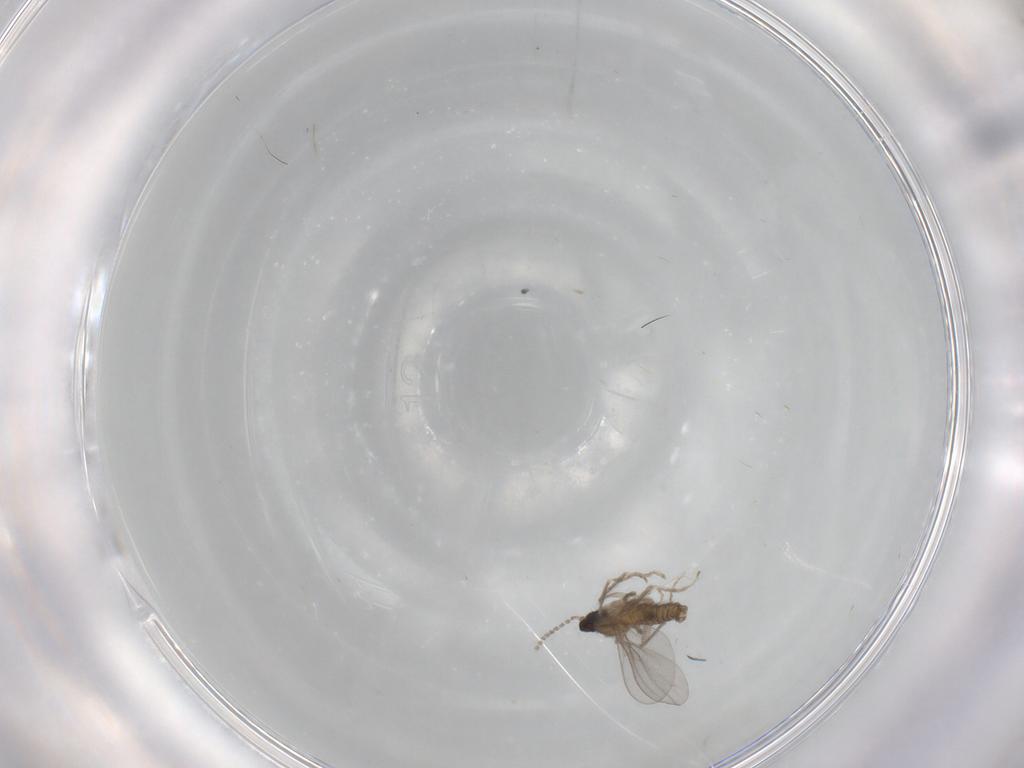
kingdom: Animalia
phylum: Arthropoda
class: Insecta
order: Diptera
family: Cecidomyiidae
